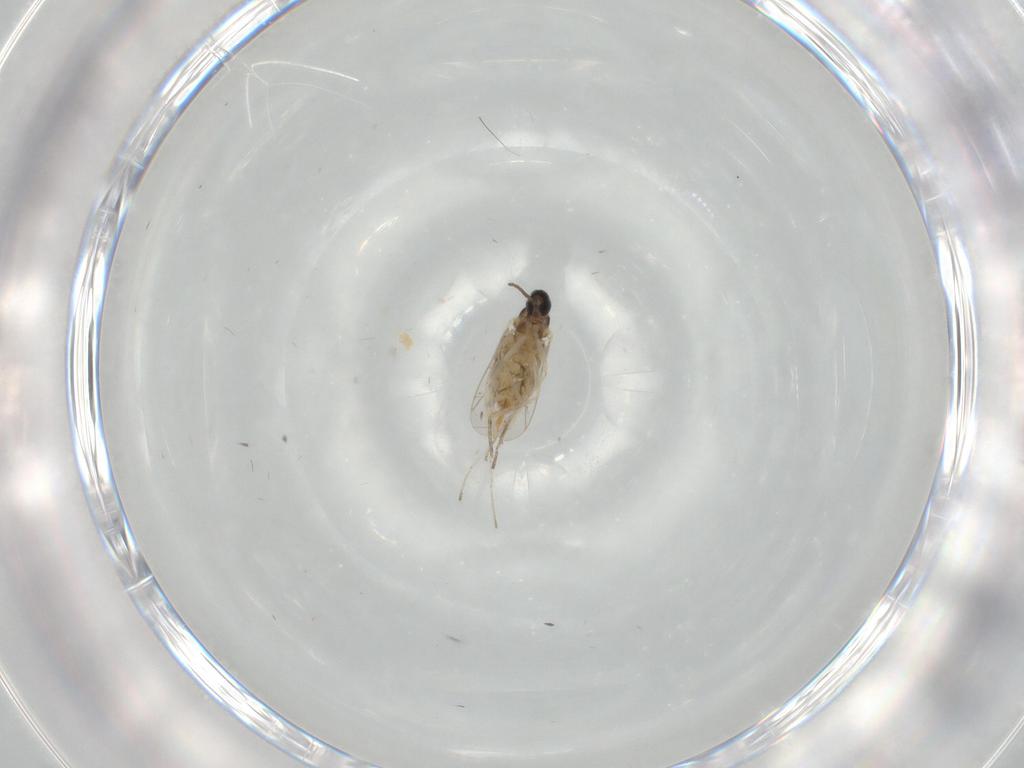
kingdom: Animalia
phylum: Arthropoda
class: Insecta
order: Diptera
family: Cecidomyiidae
